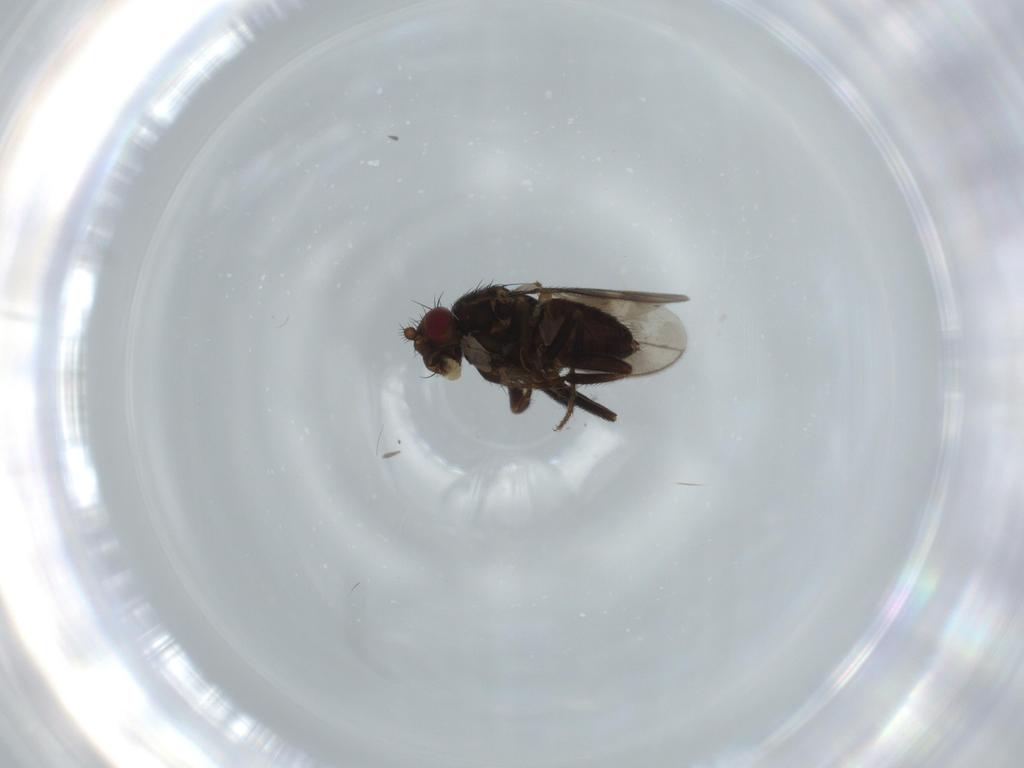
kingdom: Animalia
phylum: Arthropoda
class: Insecta
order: Diptera
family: Sphaeroceridae
